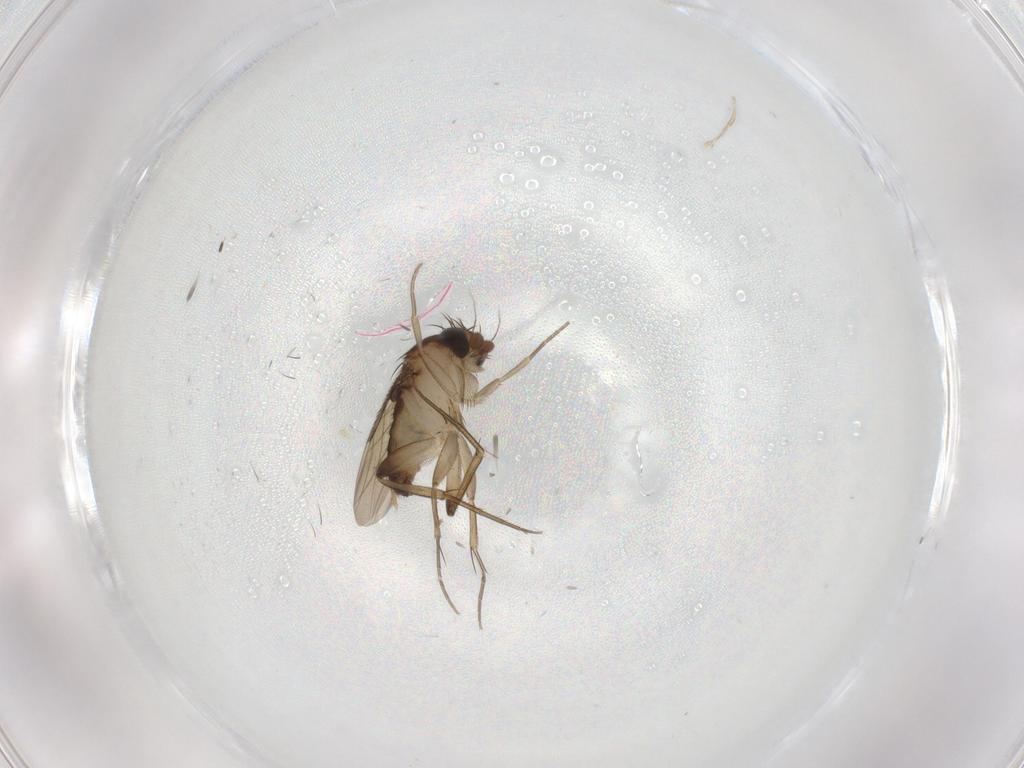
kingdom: Animalia
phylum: Arthropoda
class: Insecta
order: Diptera
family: Phoridae
